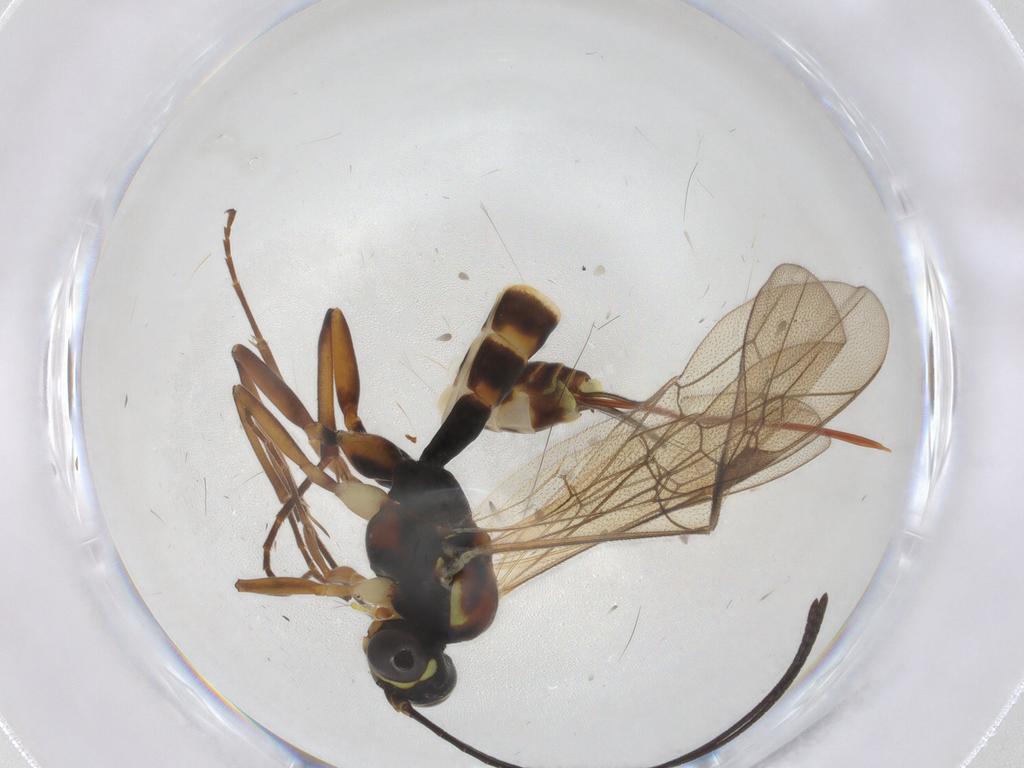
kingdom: Animalia
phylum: Arthropoda
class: Insecta
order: Hymenoptera
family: Ichneumonidae
